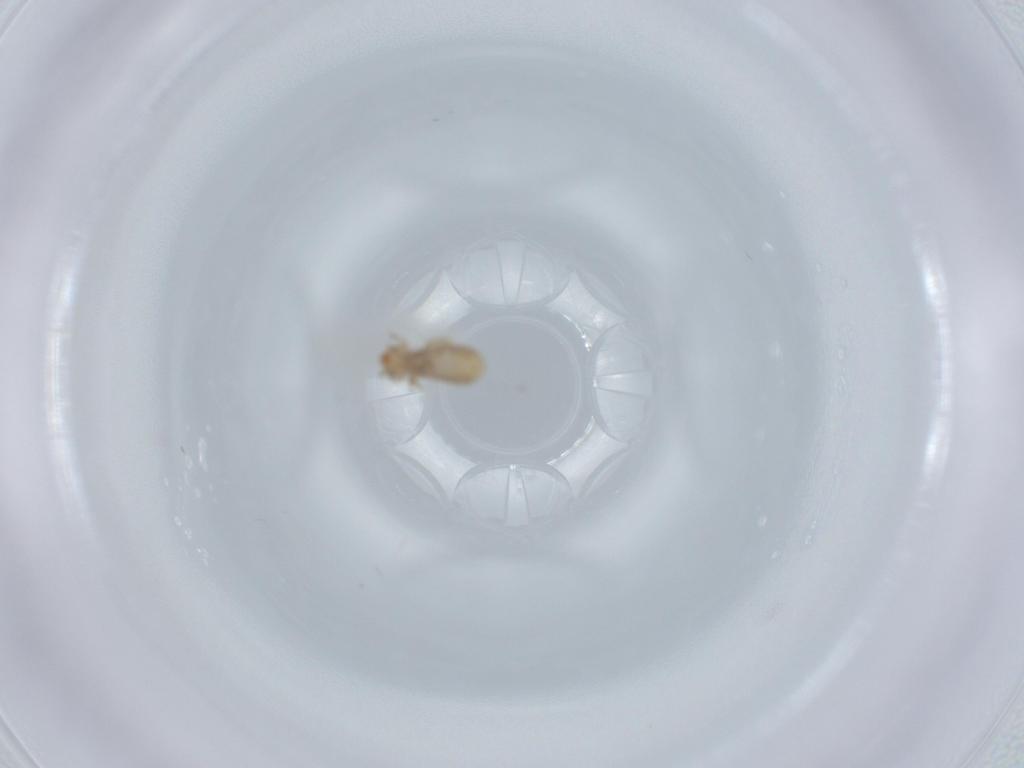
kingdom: Animalia
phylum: Arthropoda
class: Insecta
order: Psocodea
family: Liposcelididae
